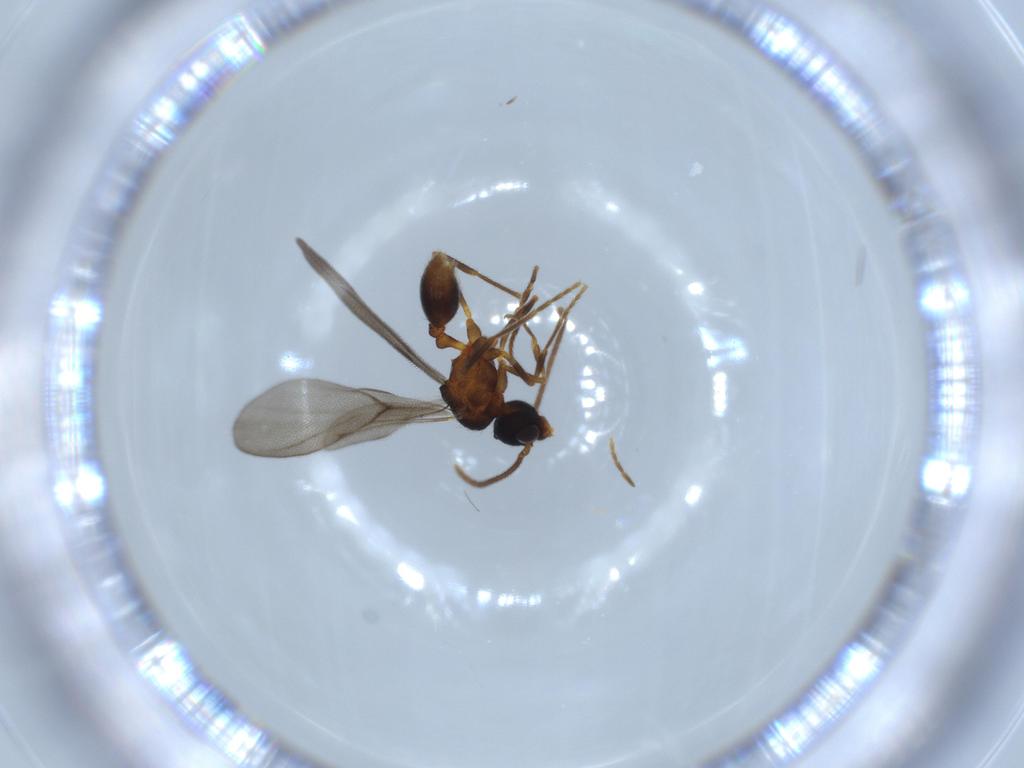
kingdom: Animalia
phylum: Arthropoda
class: Insecta
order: Hymenoptera
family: Formicidae
